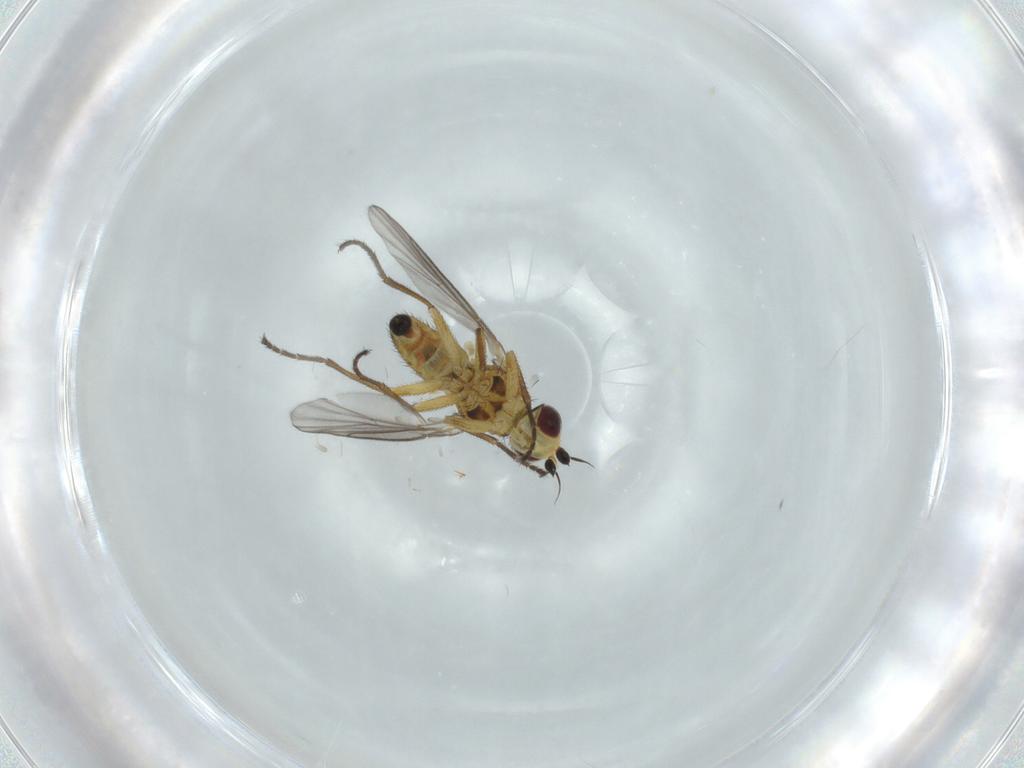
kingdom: Animalia
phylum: Arthropoda
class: Insecta
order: Diptera
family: Agromyzidae
